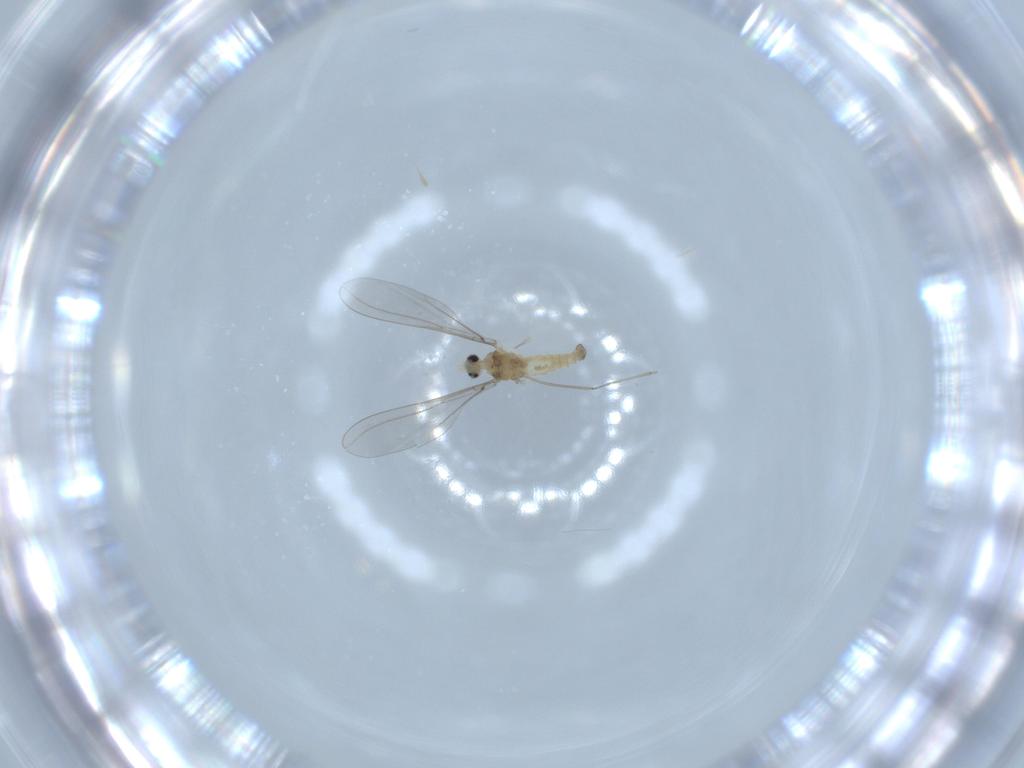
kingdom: Animalia
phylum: Arthropoda
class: Insecta
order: Diptera
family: Cecidomyiidae
